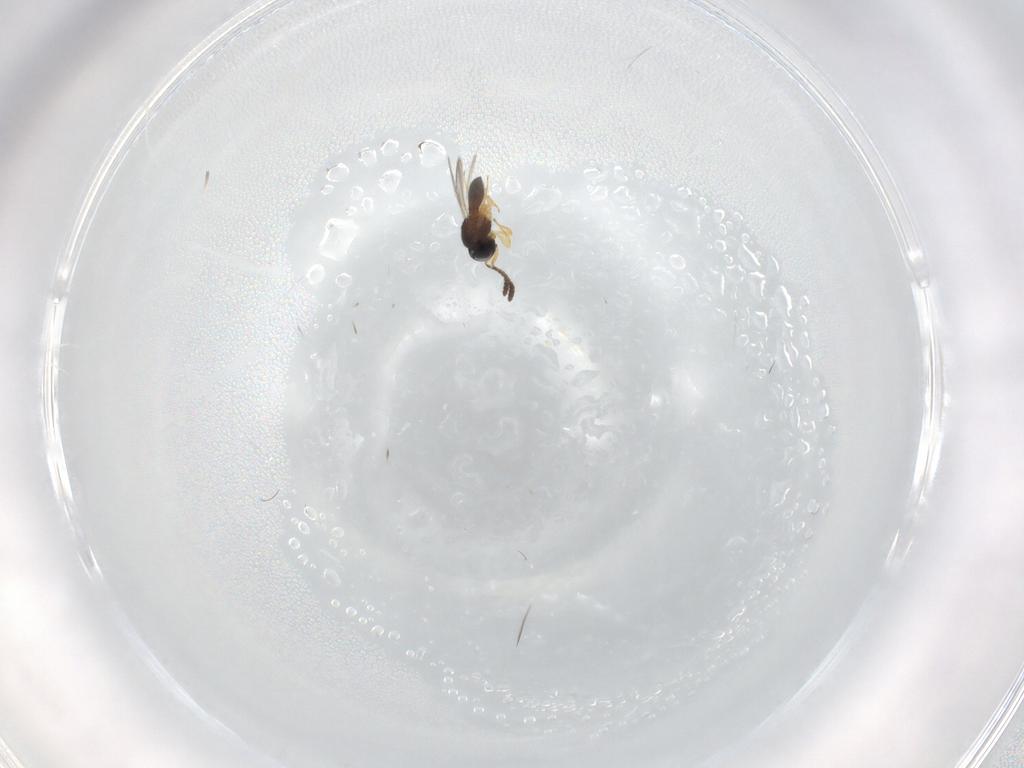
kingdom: Animalia
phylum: Arthropoda
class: Insecta
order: Hymenoptera
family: Scelionidae
